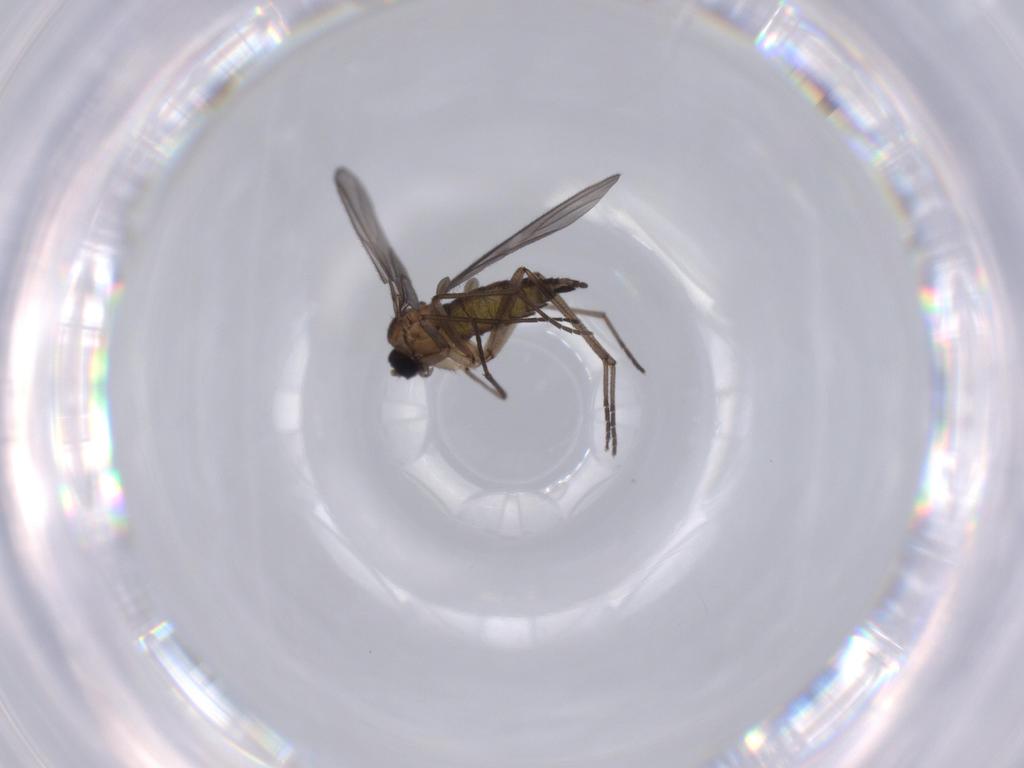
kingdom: Animalia
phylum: Arthropoda
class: Insecta
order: Diptera
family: Sciaridae
